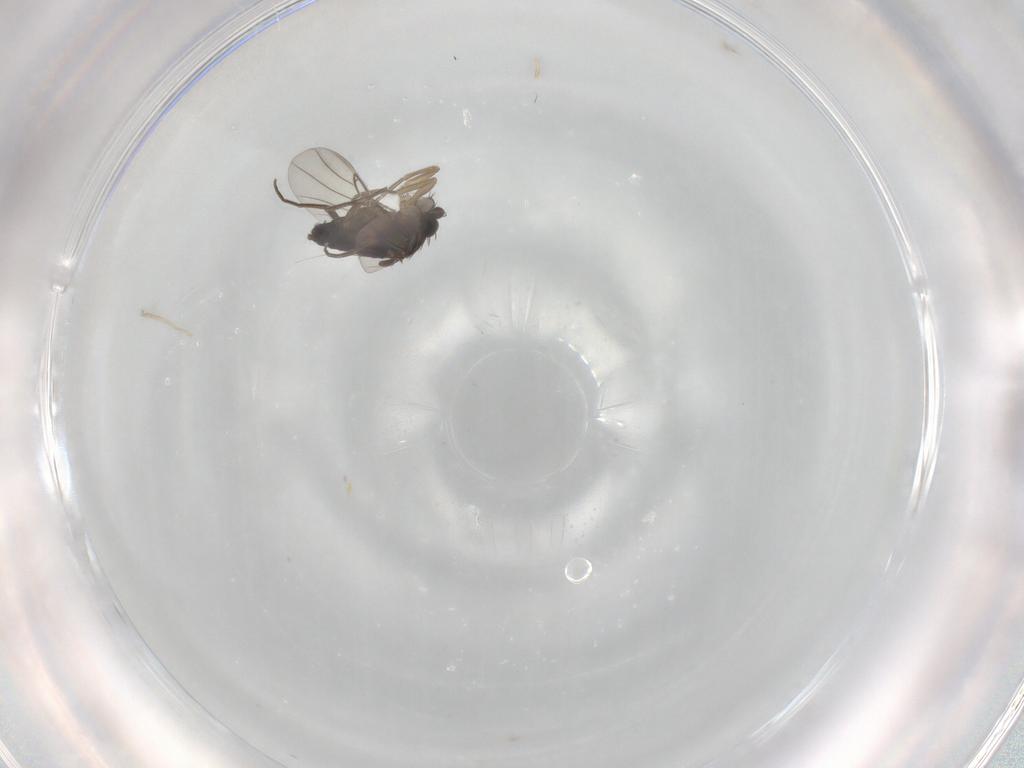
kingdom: Animalia
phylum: Arthropoda
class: Insecta
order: Diptera
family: Phoridae
